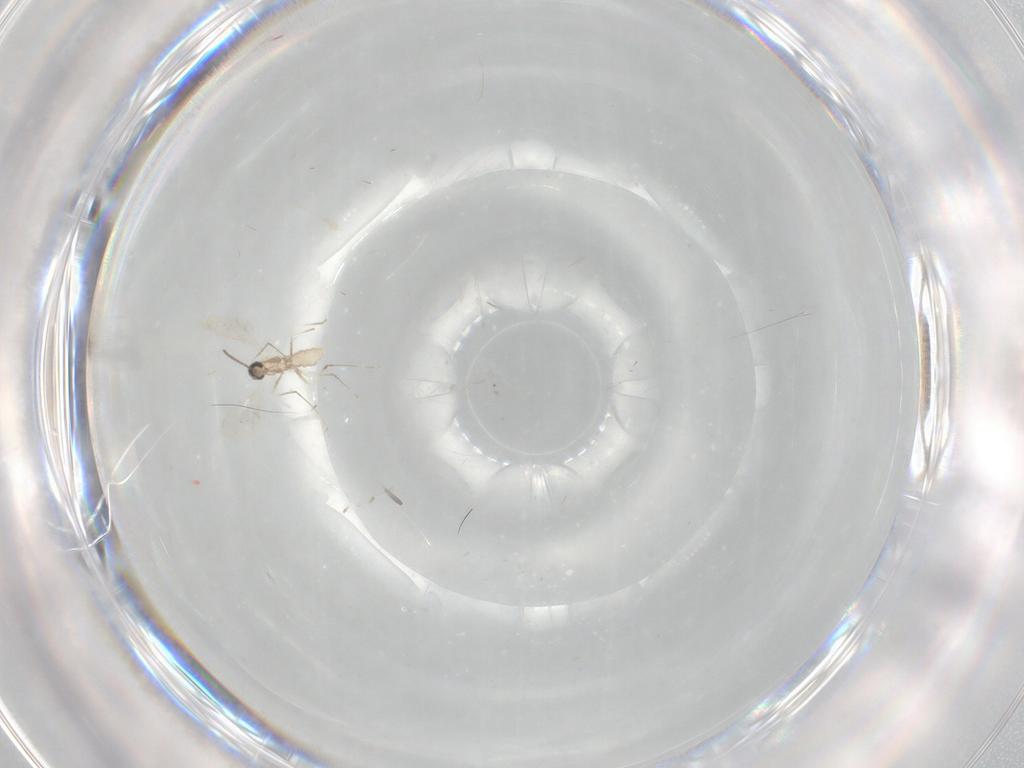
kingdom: Animalia
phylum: Arthropoda
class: Insecta
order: Diptera
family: Cecidomyiidae
